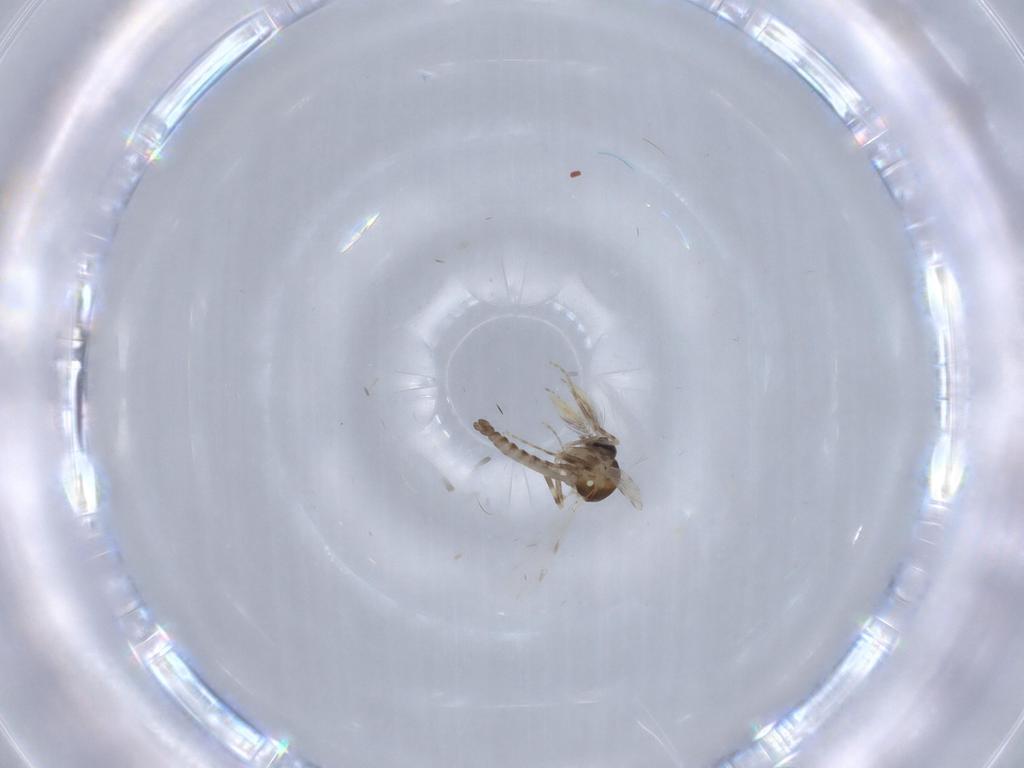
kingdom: Animalia
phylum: Arthropoda
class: Insecta
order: Diptera
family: Ceratopogonidae
